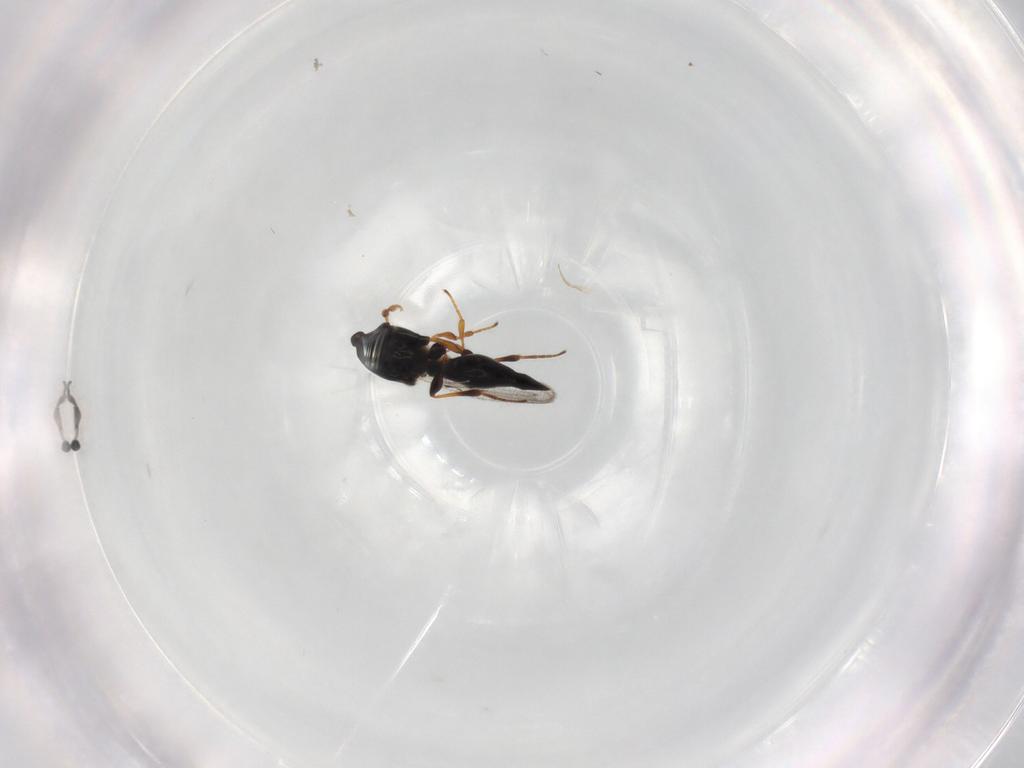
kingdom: Animalia
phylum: Arthropoda
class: Insecta
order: Hymenoptera
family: Platygastridae
